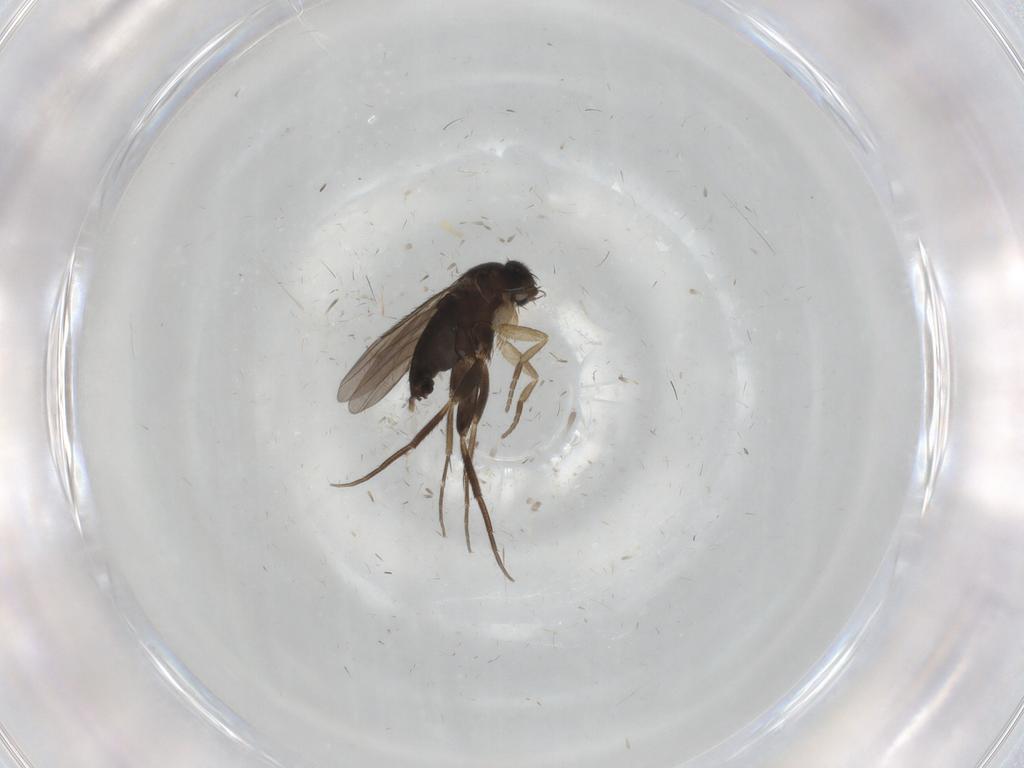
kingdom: Animalia
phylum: Arthropoda
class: Insecta
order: Diptera
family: Phoridae
